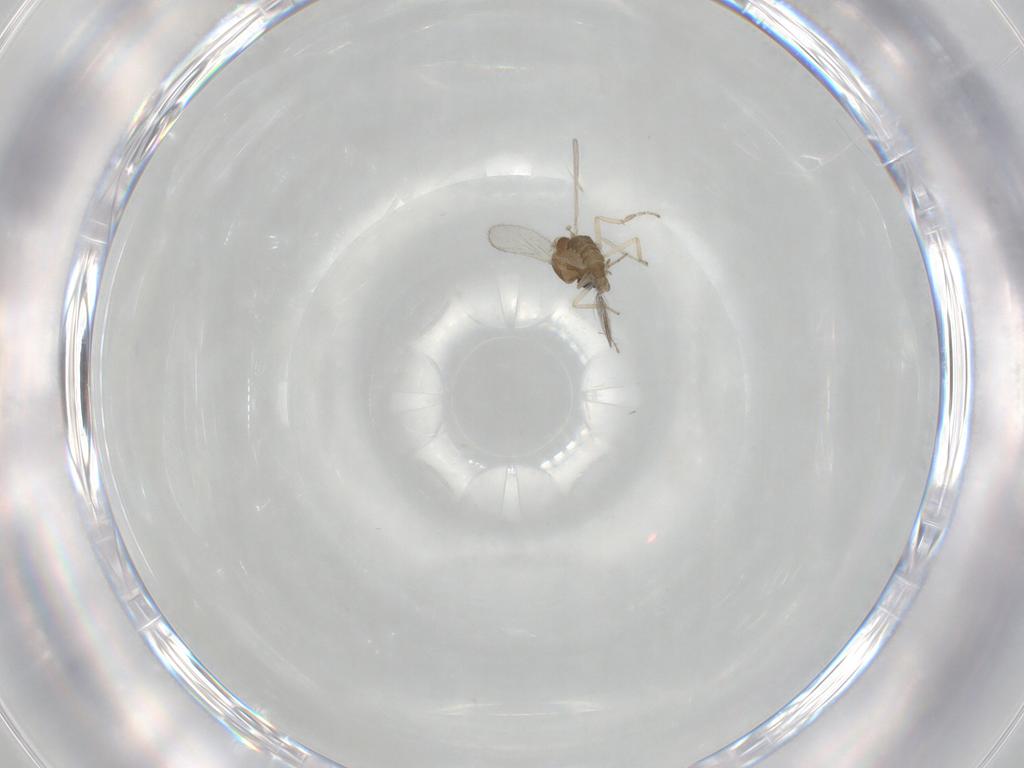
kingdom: Animalia
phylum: Arthropoda
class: Insecta
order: Diptera
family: Ceratopogonidae
